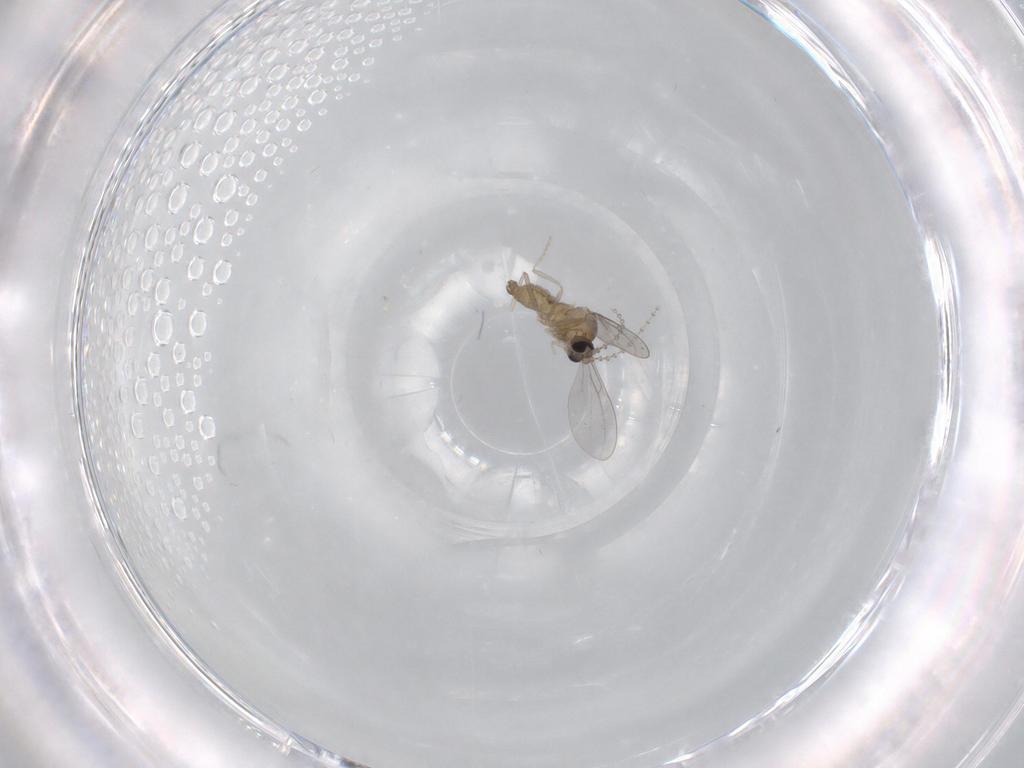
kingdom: Animalia
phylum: Arthropoda
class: Insecta
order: Diptera
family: Cecidomyiidae
